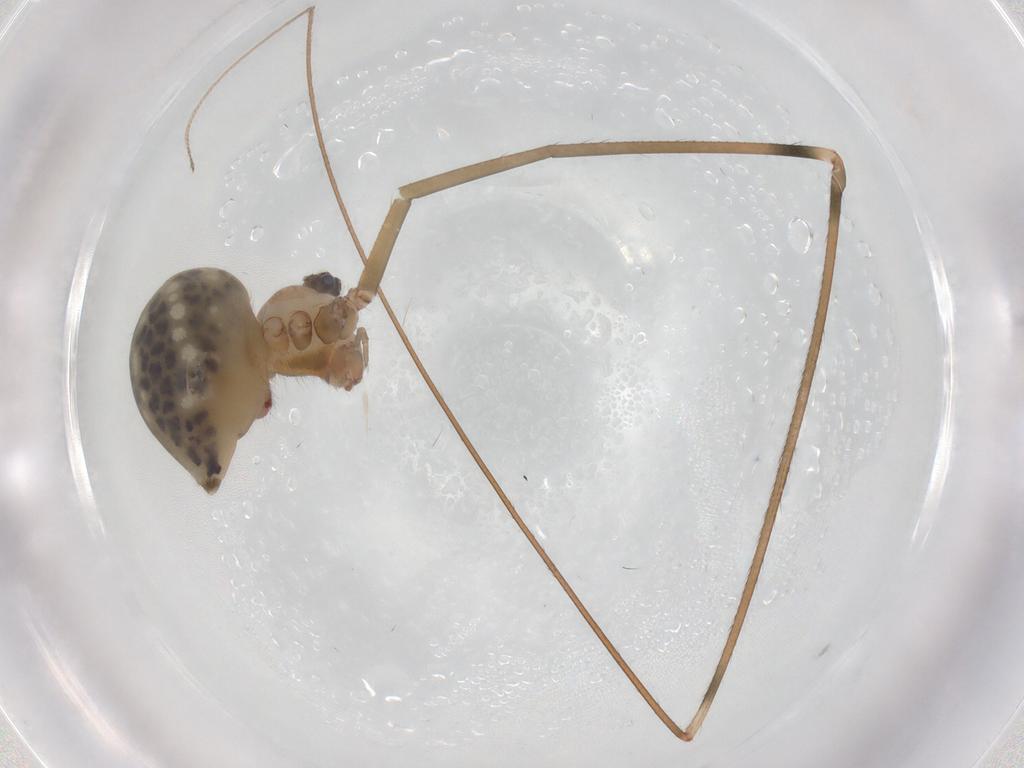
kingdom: Animalia
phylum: Arthropoda
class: Arachnida
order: Araneae
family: Pholcidae
